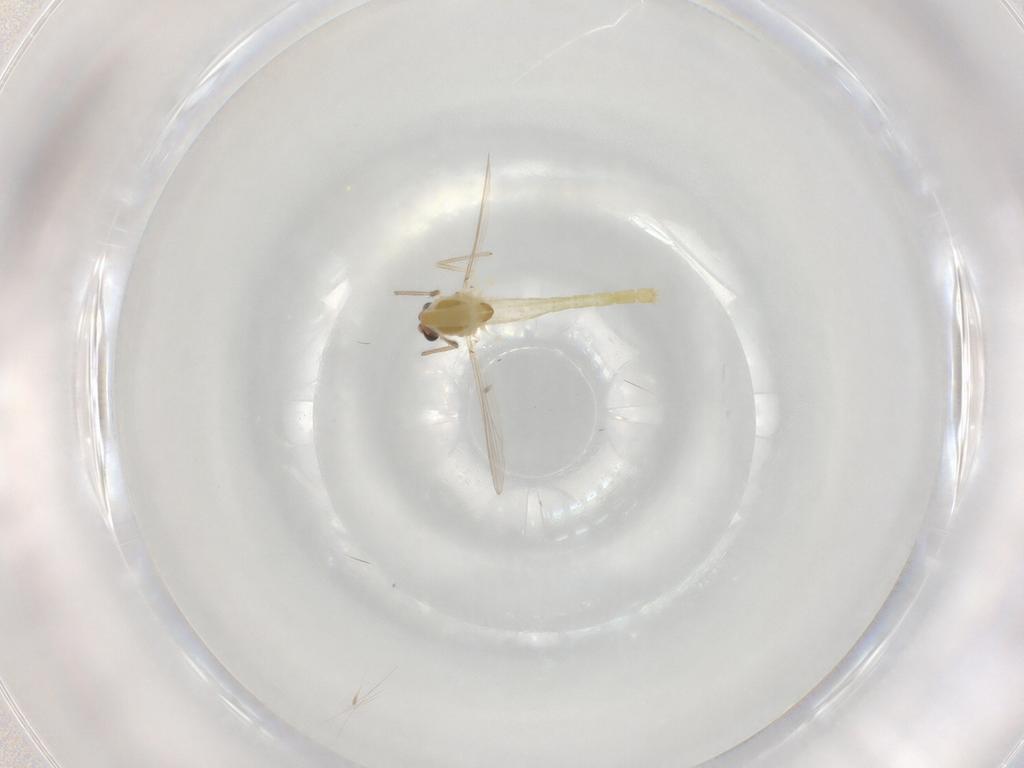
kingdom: Animalia
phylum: Arthropoda
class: Insecta
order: Diptera
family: Chironomidae
